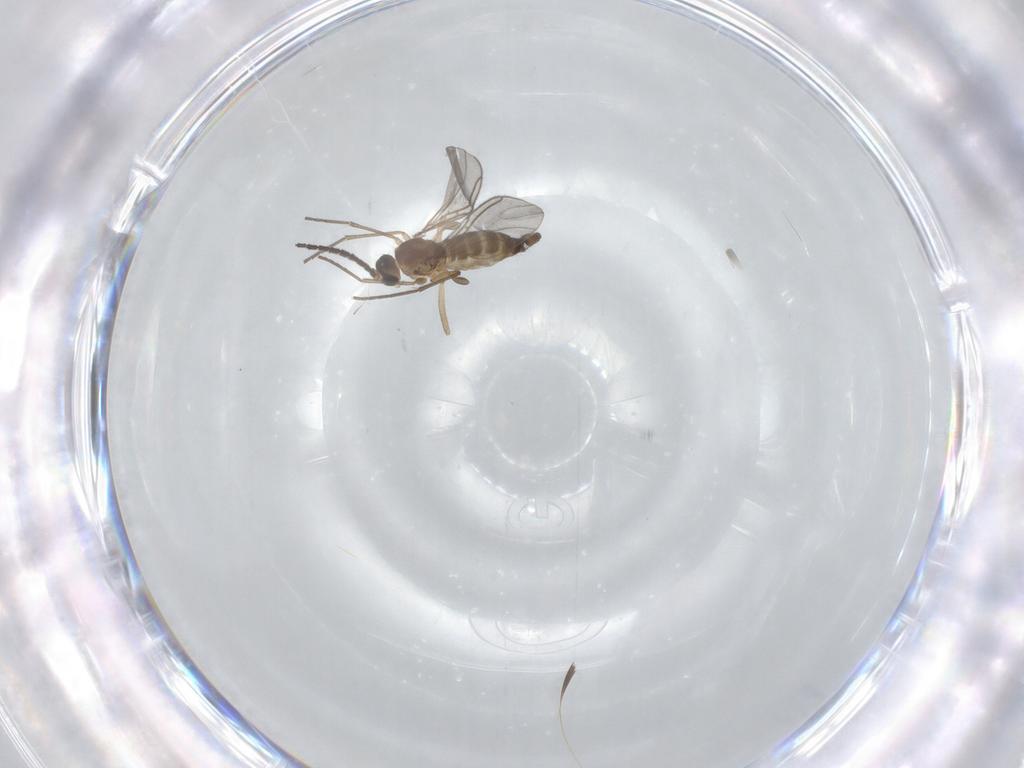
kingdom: Animalia
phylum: Arthropoda
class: Insecta
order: Diptera
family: Sciaridae
